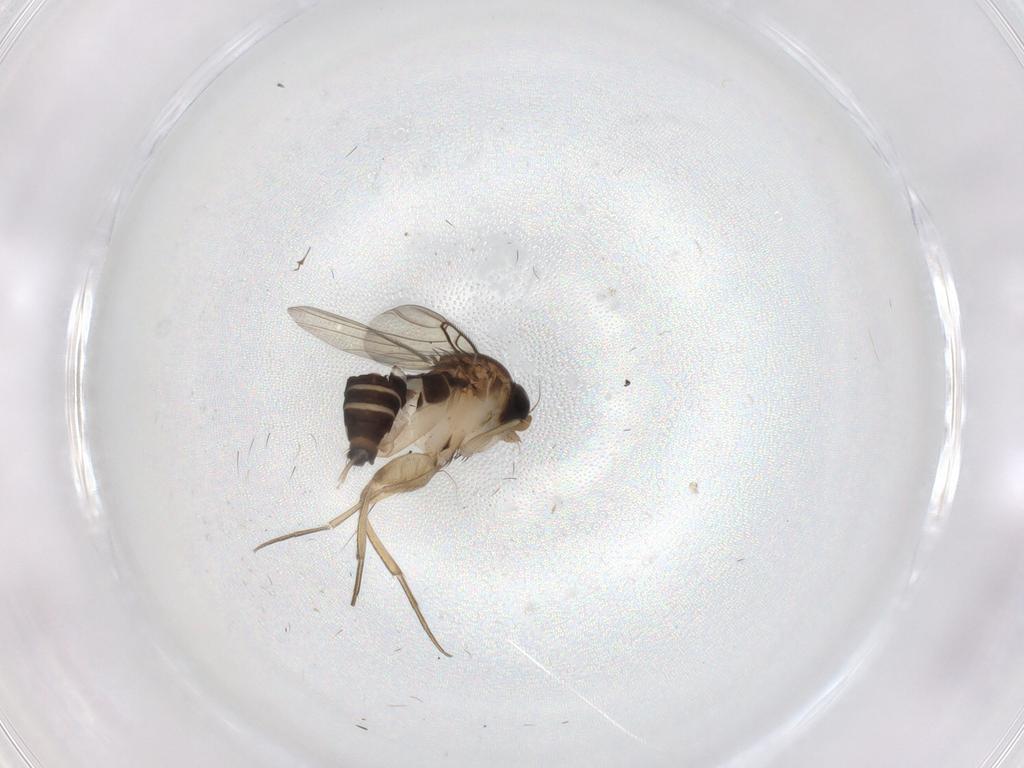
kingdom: Animalia
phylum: Arthropoda
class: Insecta
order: Diptera
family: Phoridae
